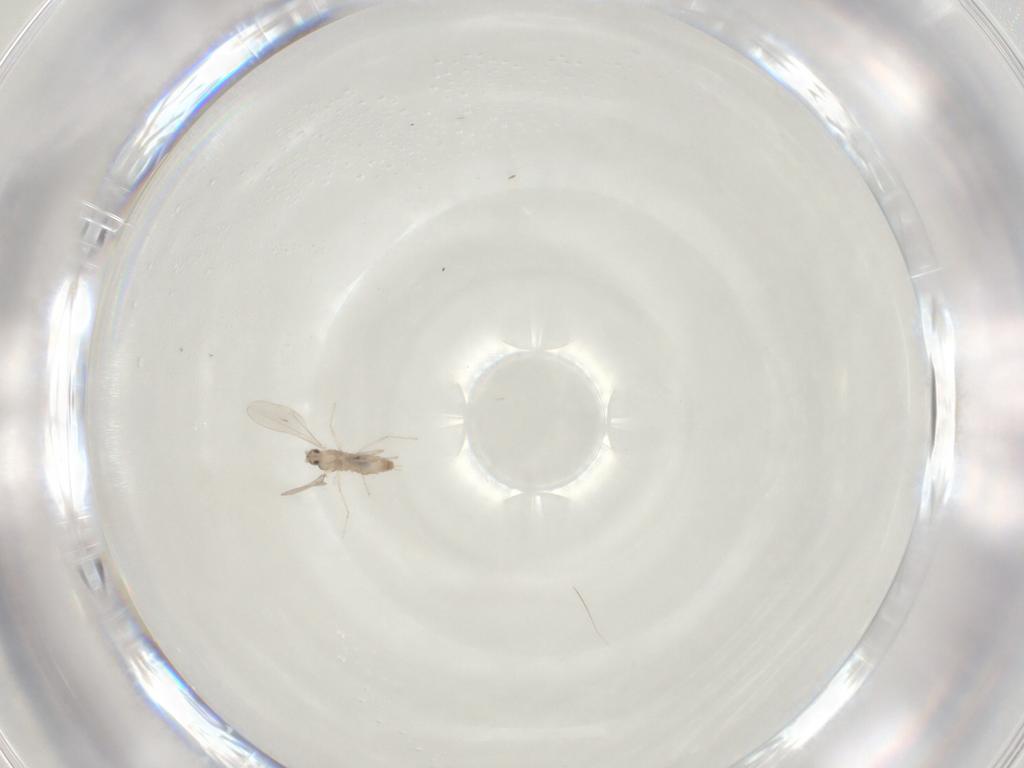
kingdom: Animalia
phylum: Arthropoda
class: Insecta
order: Diptera
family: Cecidomyiidae
